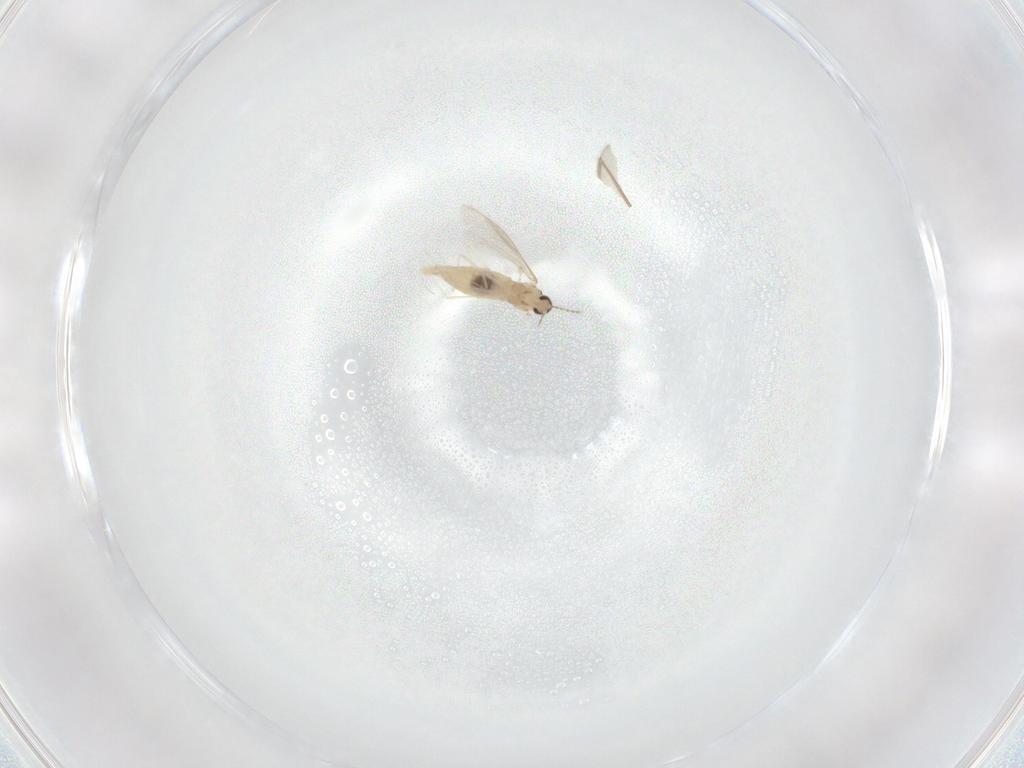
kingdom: Animalia
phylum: Arthropoda
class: Insecta
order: Diptera
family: Cecidomyiidae
